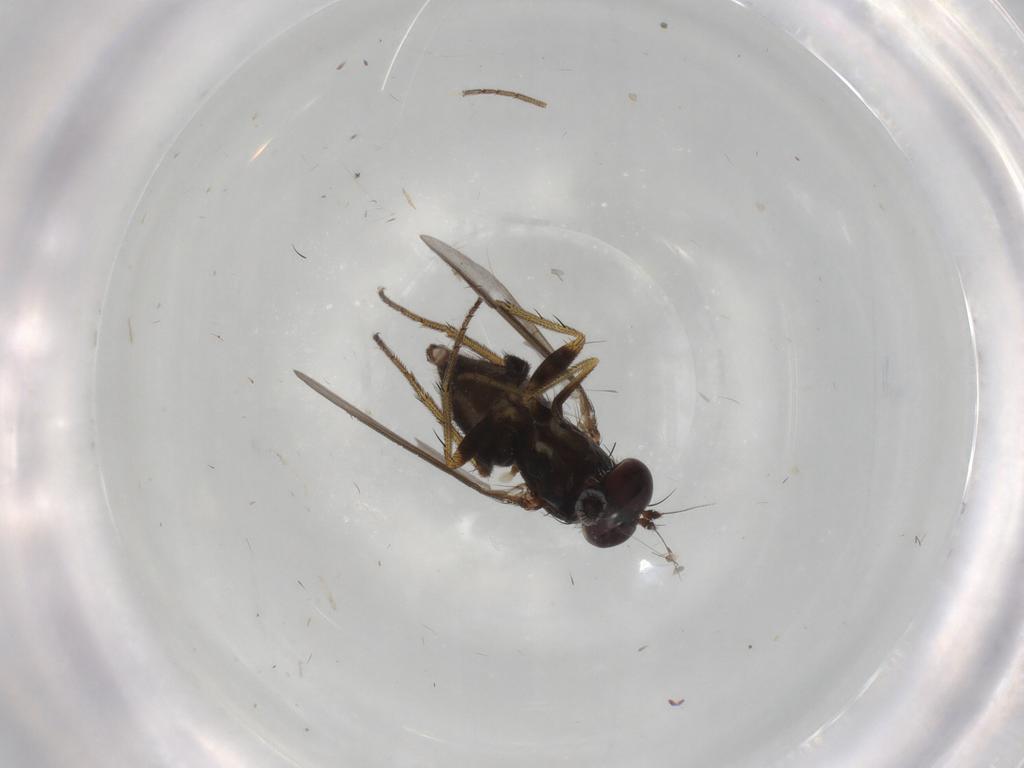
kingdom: Animalia
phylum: Arthropoda
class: Insecta
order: Diptera
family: Dolichopodidae
